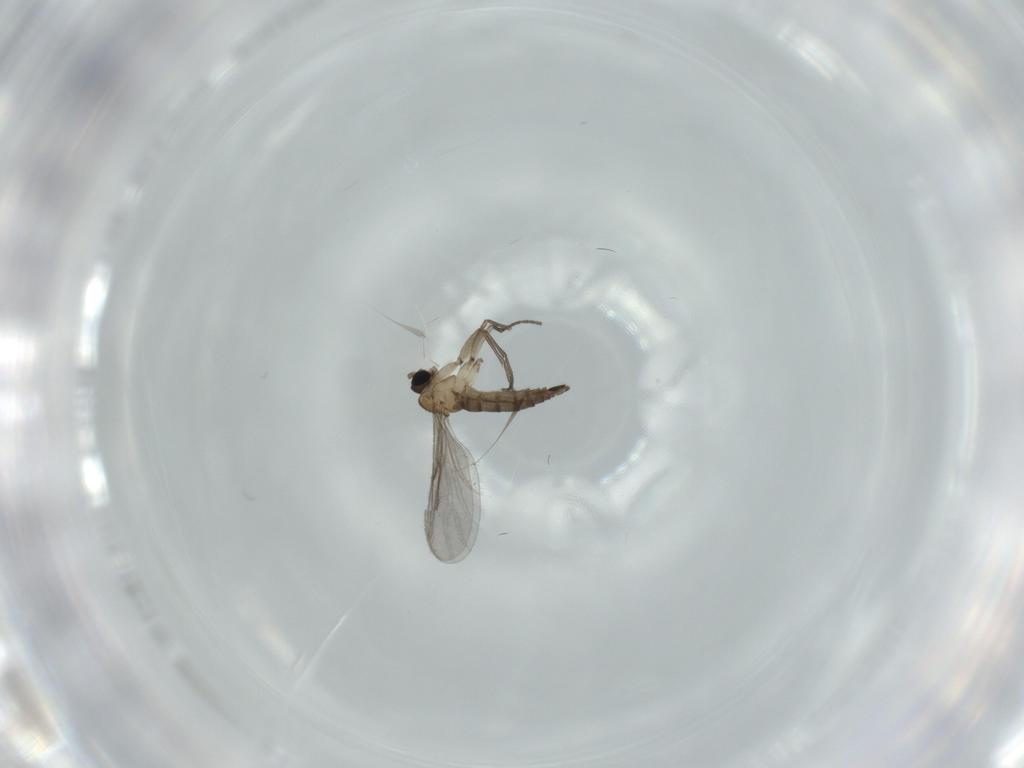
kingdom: Animalia
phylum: Arthropoda
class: Insecta
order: Diptera
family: Sciaridae
